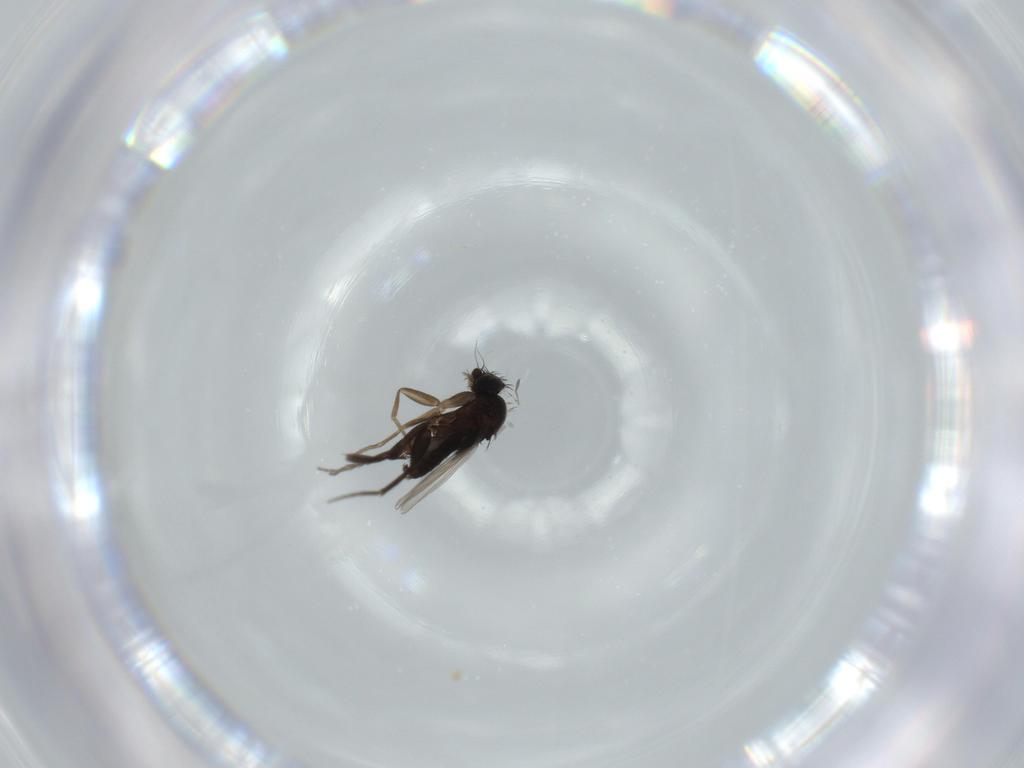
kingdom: Animalia
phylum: Arthropoda
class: Insecta
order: Diptera
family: Phoridae
